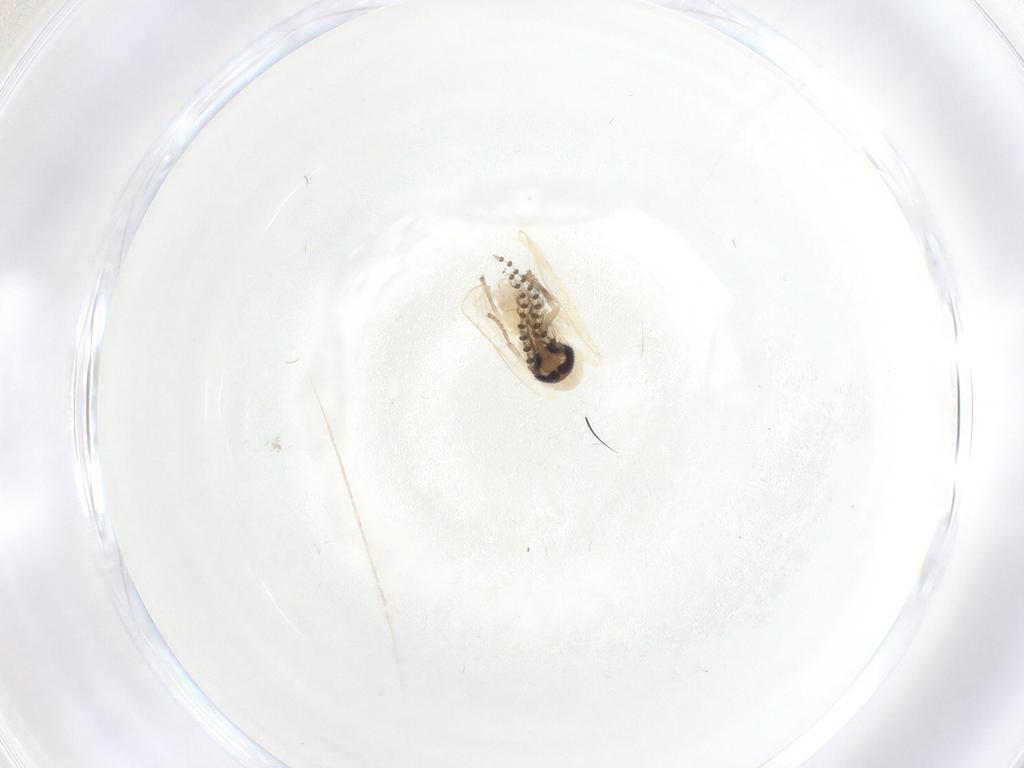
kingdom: Animalia
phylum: Arthropoda
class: Insecta
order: Diptera
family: Psychodidae
